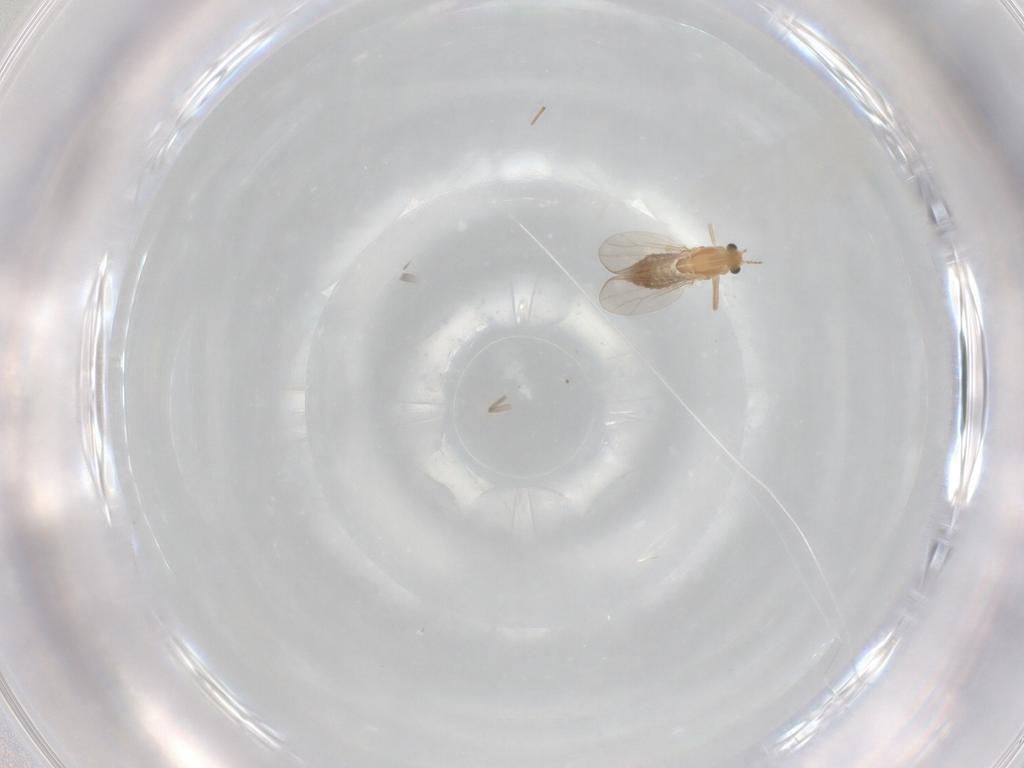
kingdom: Animalia
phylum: Arthropoda
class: Insecta
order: Diptera
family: Chironomidae
